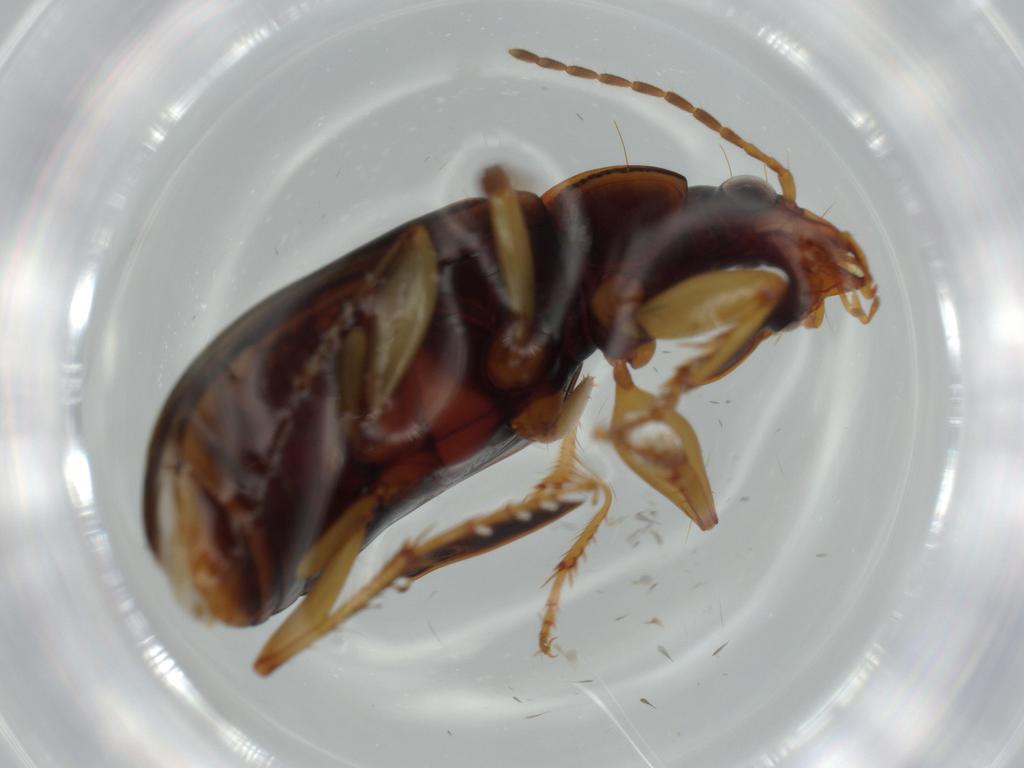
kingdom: Animalia
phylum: Arthropoda
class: Insecta
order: Coleoptera
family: Carabidae
